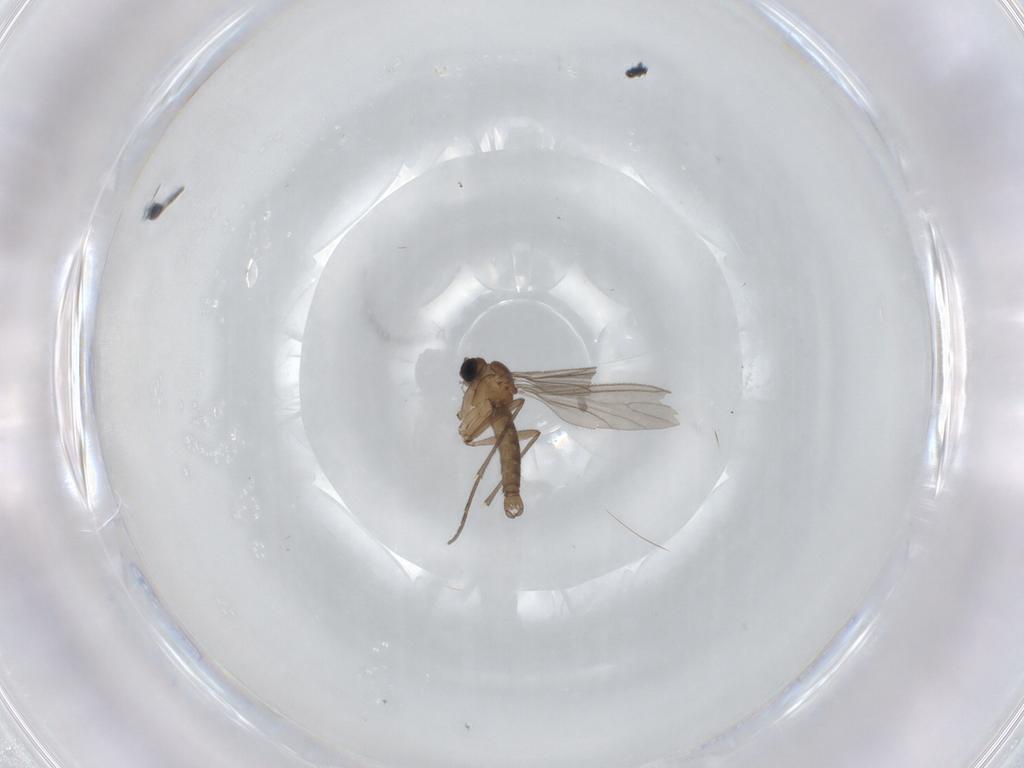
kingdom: Animalia
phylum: Arthropoda
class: Insecta
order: Diptera
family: Sciaridae
